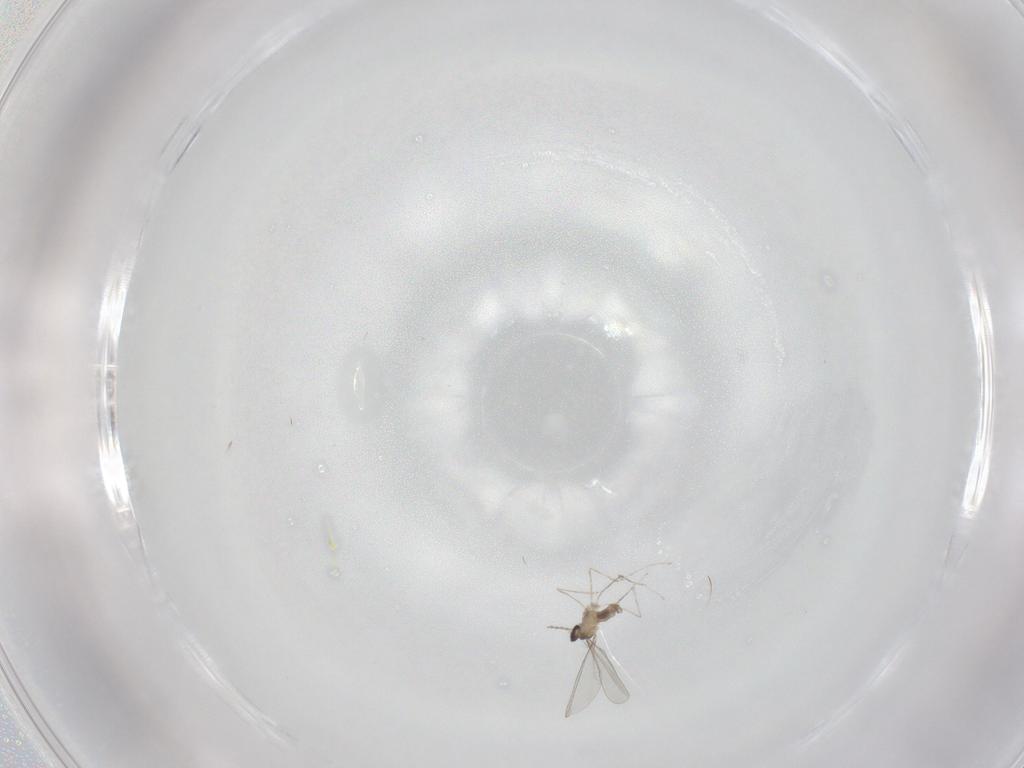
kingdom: Animalia
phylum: Arthropoda
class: Insecta
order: Diptera
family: Cecidomyiidae
